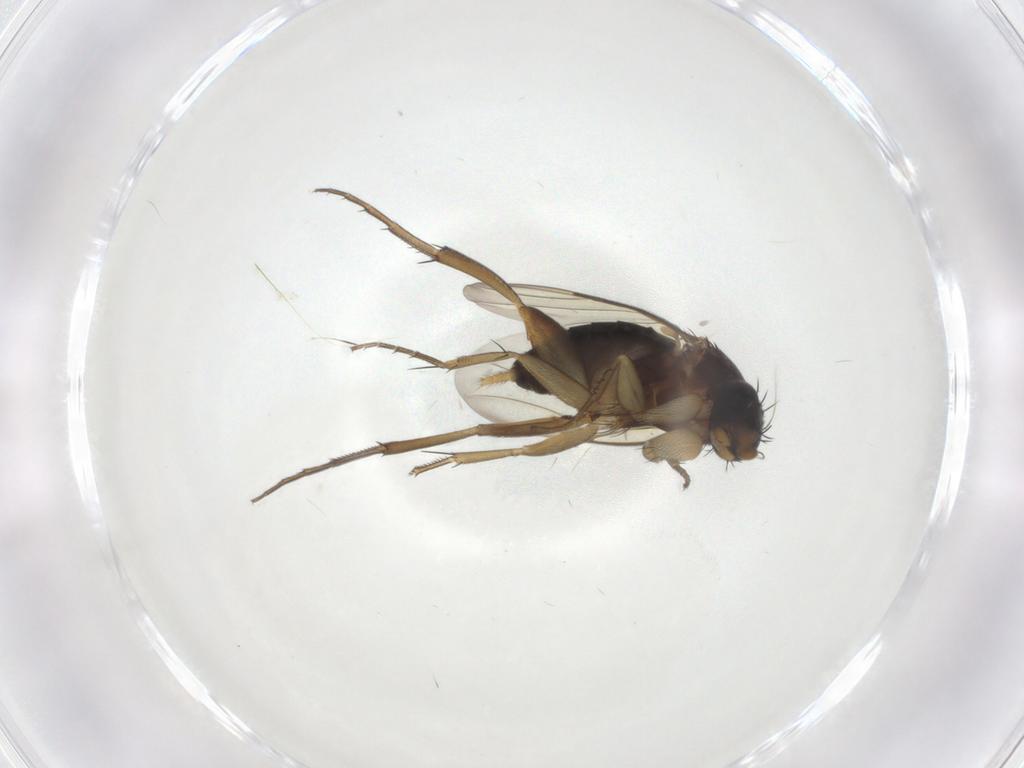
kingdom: Animalia
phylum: Arthropoda
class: Insecta
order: Diptera
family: Phoridae
